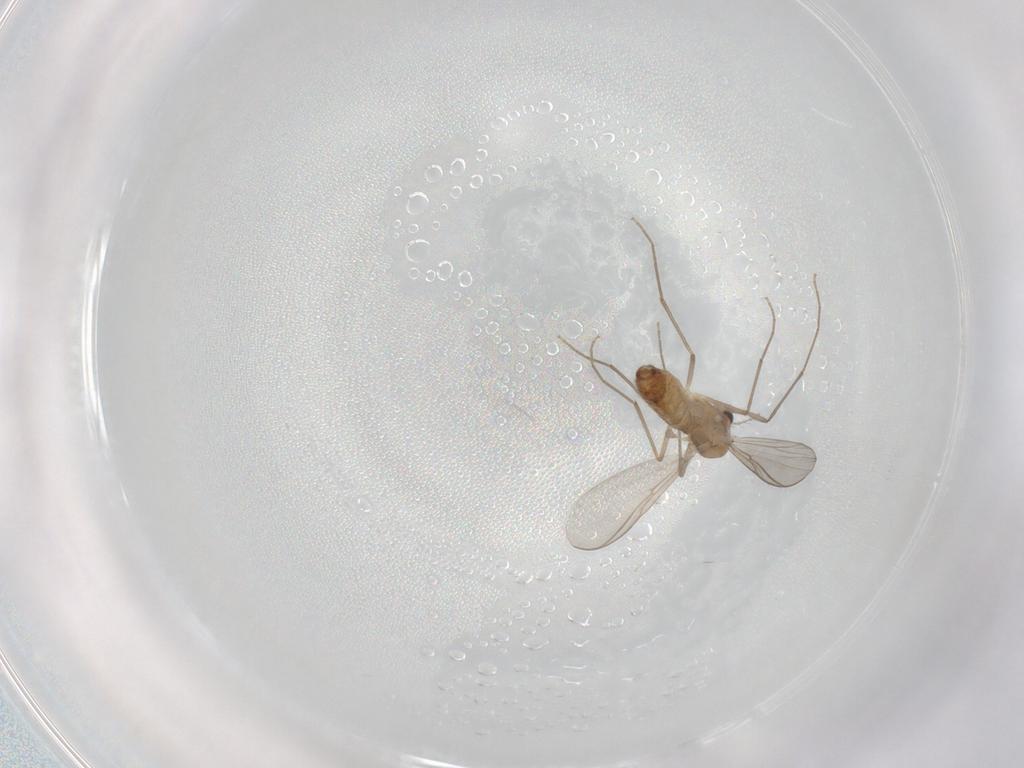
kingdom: Animalia
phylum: Arthropoda
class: Insecta
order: Diptera
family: Chironomidae
